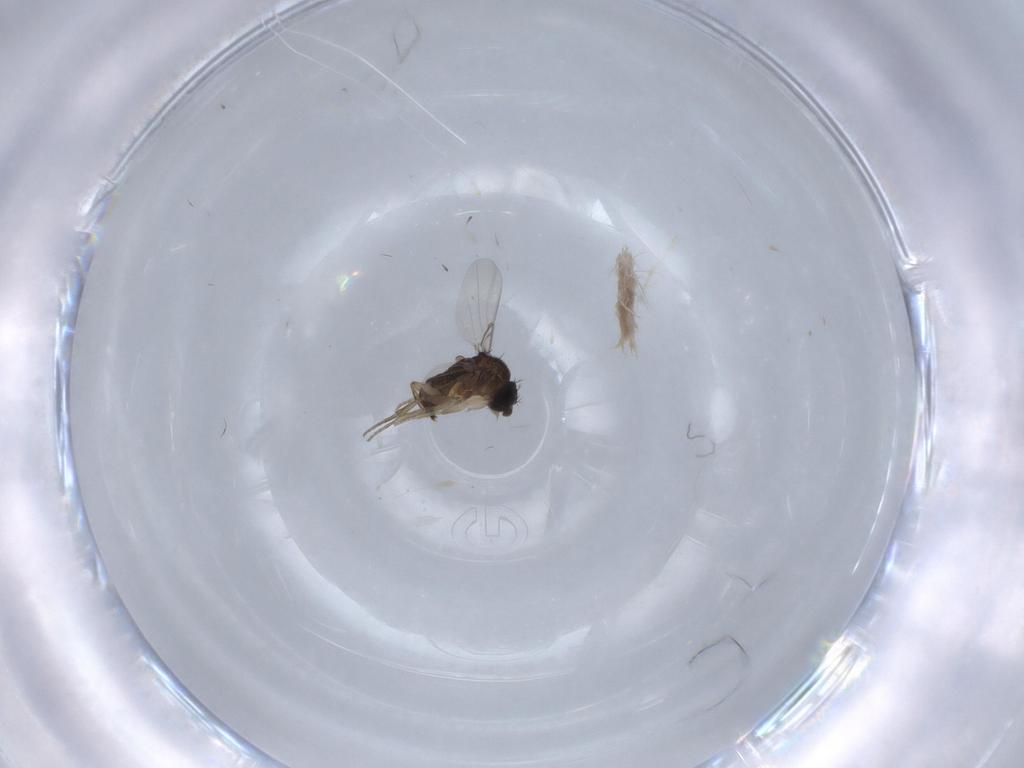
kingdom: Animalia
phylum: Arthropoda
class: Insecta
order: Diptera
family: Phoridae
